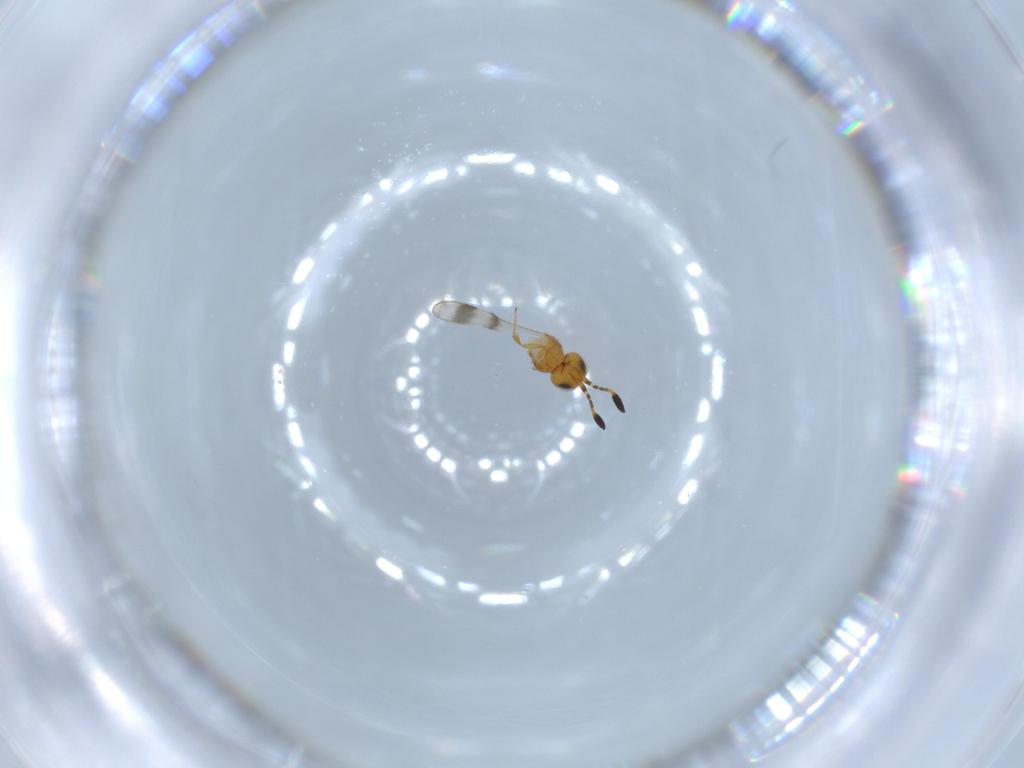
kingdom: Animalia
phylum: Arthropoda
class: Insecta
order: Hymenoptera
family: Scelionidae
